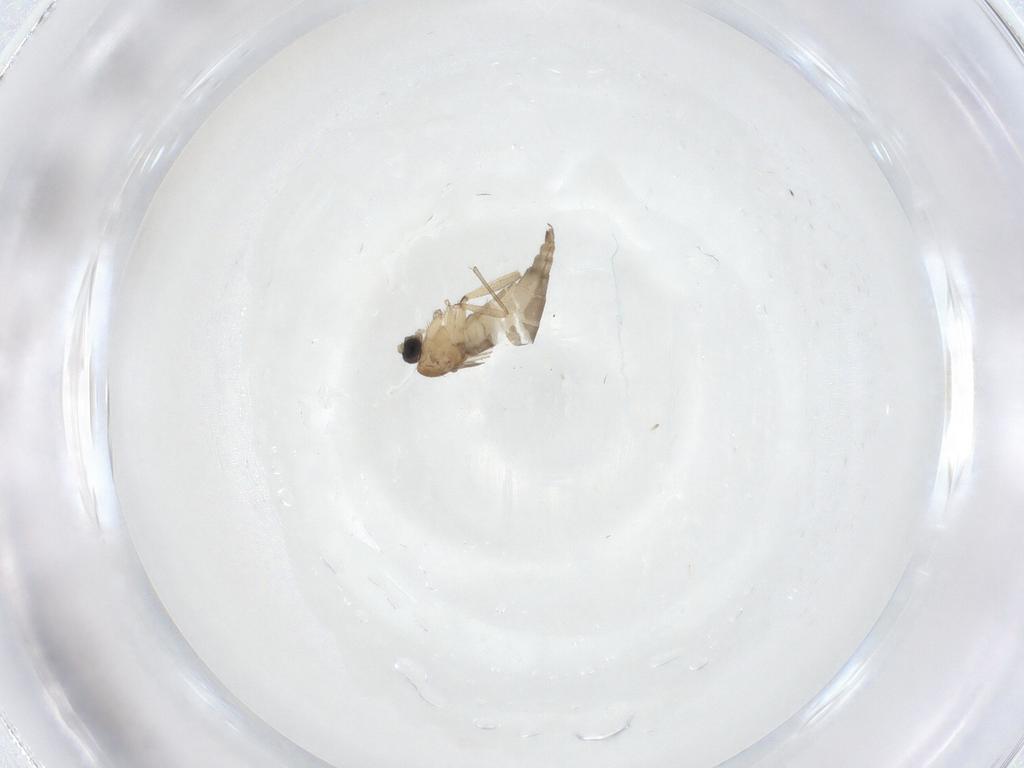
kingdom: Animalia
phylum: Arthropoda
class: Insecta
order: Diptera
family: Sciaridae
